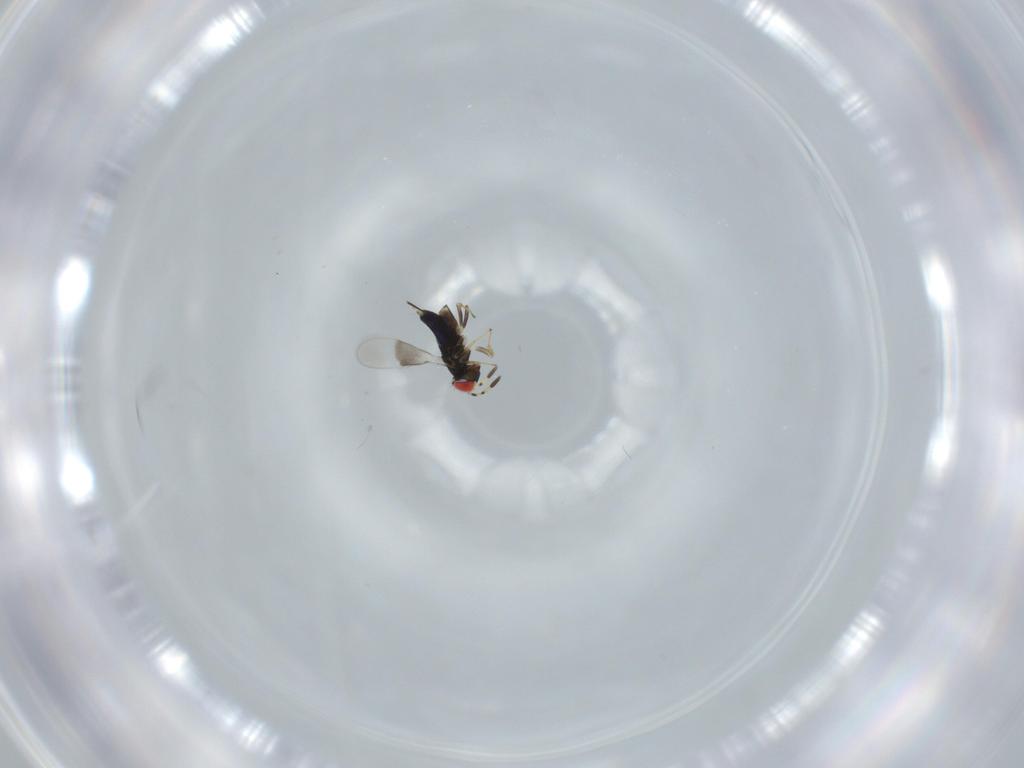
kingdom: Animalia
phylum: Arthropoda
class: Insecta
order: Hymenoptera
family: Azotidae
